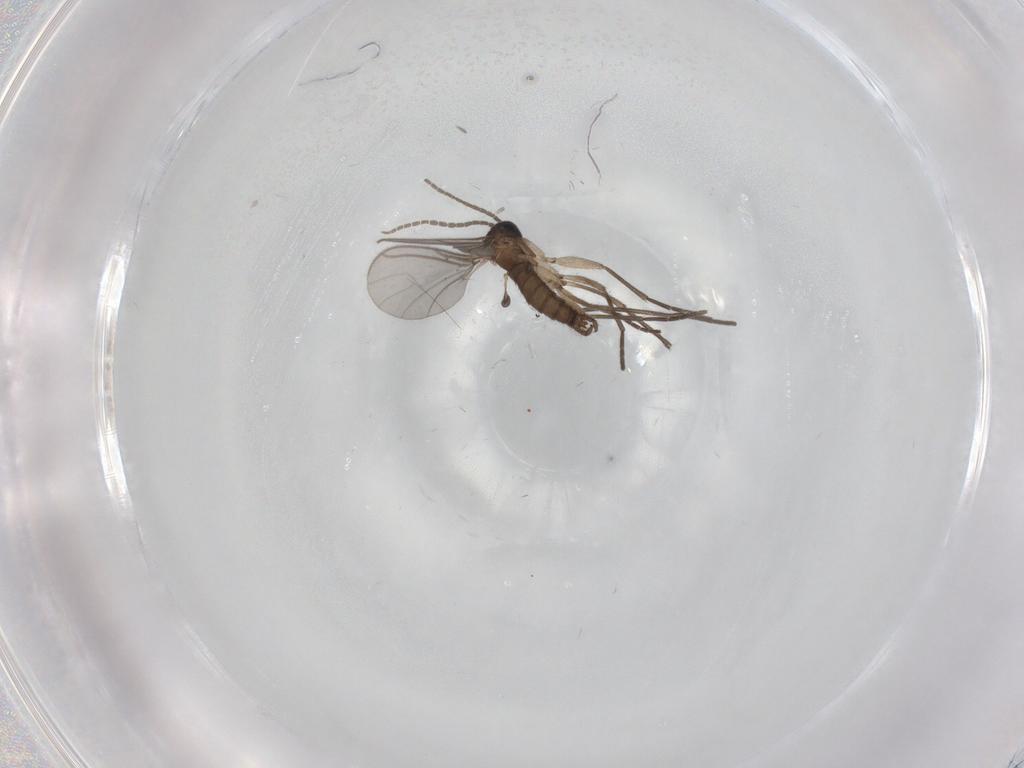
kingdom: Animalia
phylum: Arthropoda
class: Insecta
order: Diptera
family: Sciaridae
